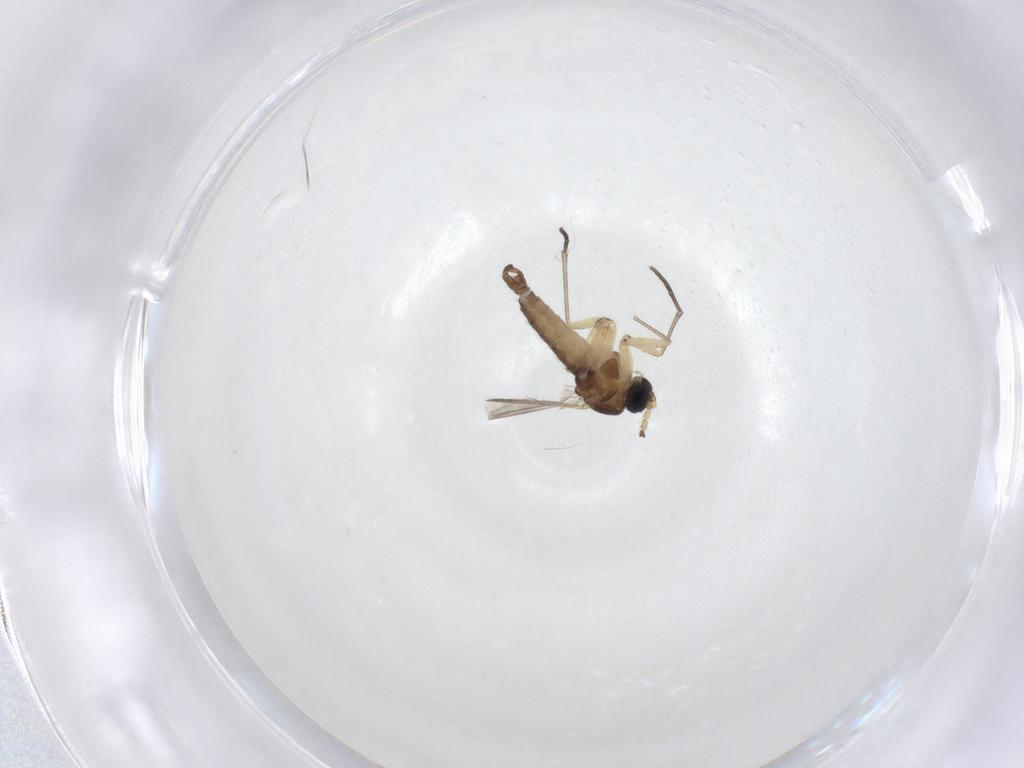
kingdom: Animalia
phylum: Arthropoda
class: Insecta
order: Diptera
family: Sciaridae
